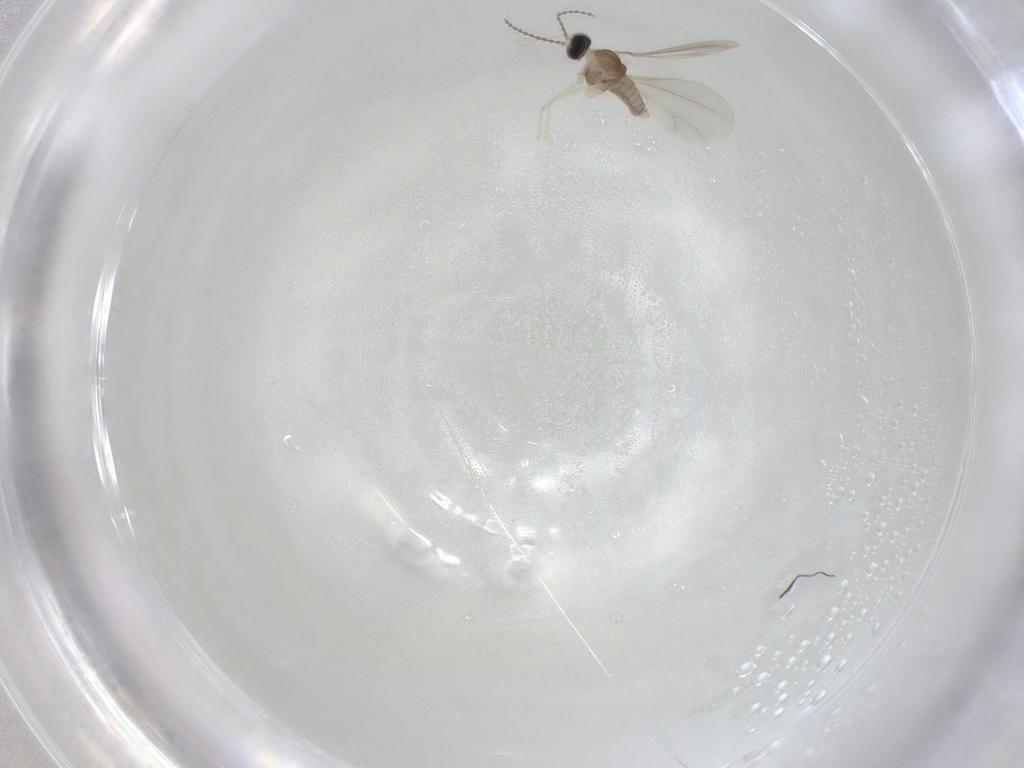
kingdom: Animalia
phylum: Arthropoda
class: Insecta
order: Diptera
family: Cecidomyiidae
